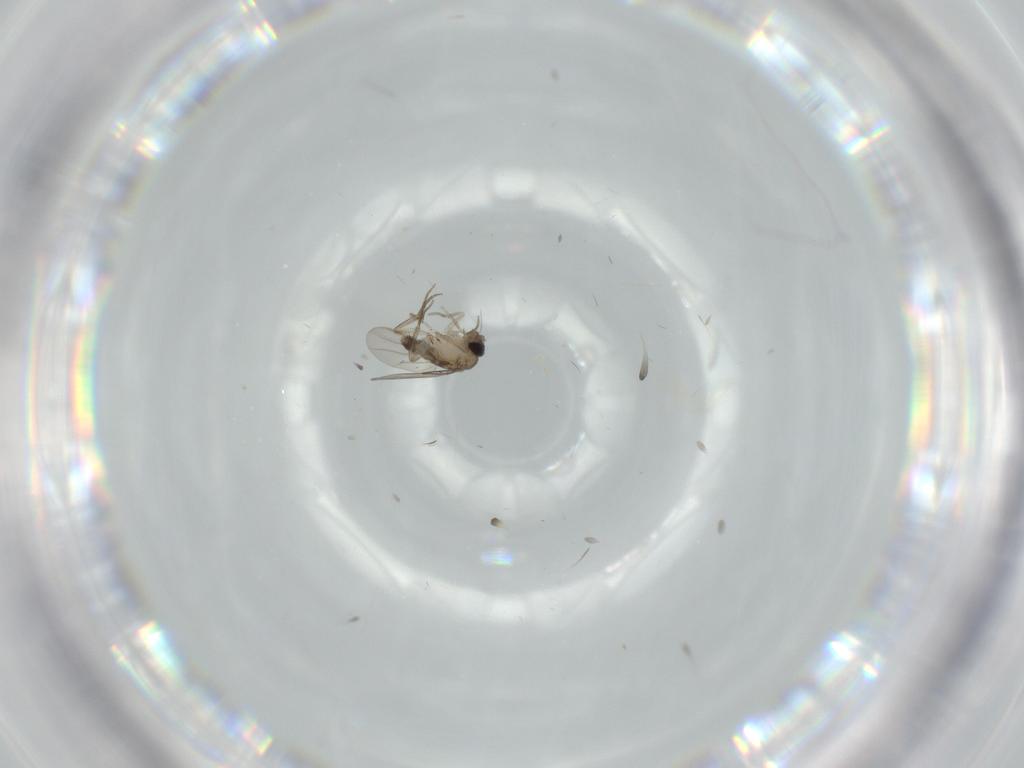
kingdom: Animalia
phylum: Arthropoda
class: Insecta
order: Diptera
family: Phoridae
